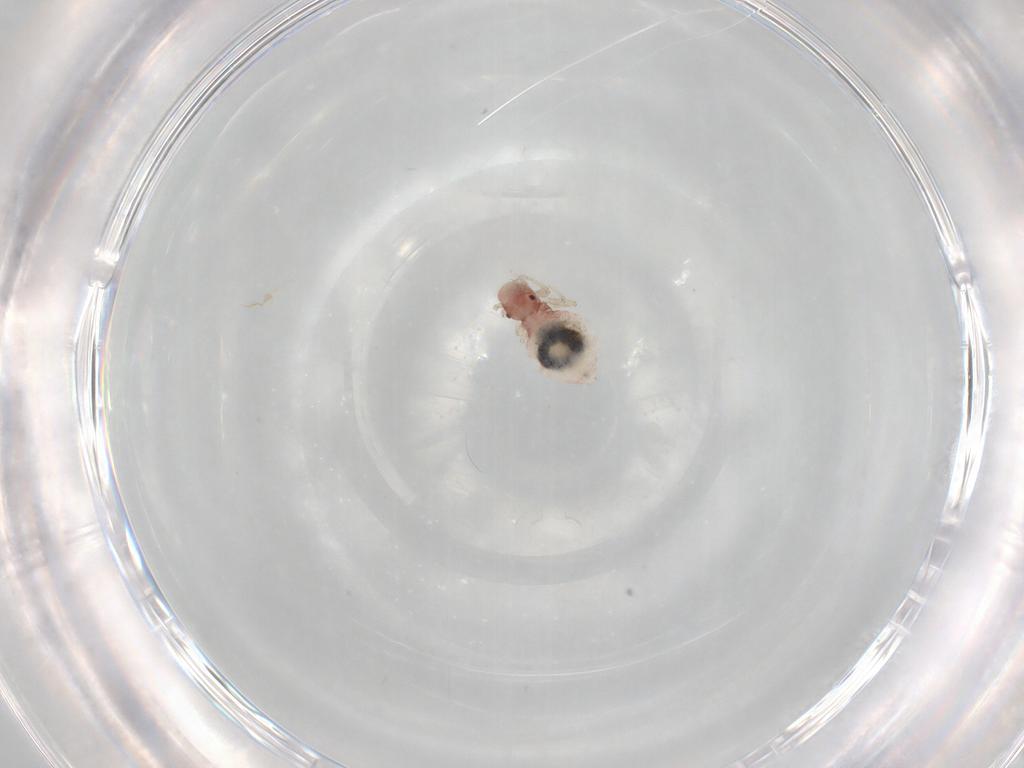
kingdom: Animalia
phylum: Arthropoda
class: Insecta
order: Psocodea
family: Caeciliusidae
